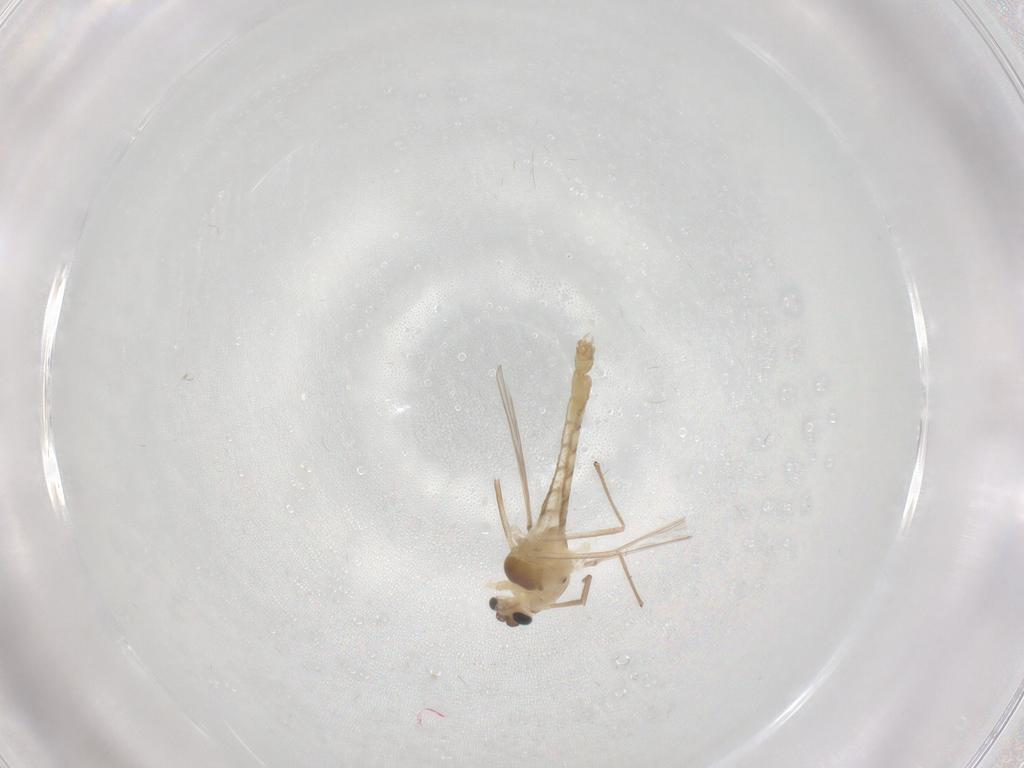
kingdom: Animalia
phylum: Arthropoda
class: Insecta
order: Diptera
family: Chironomidae
